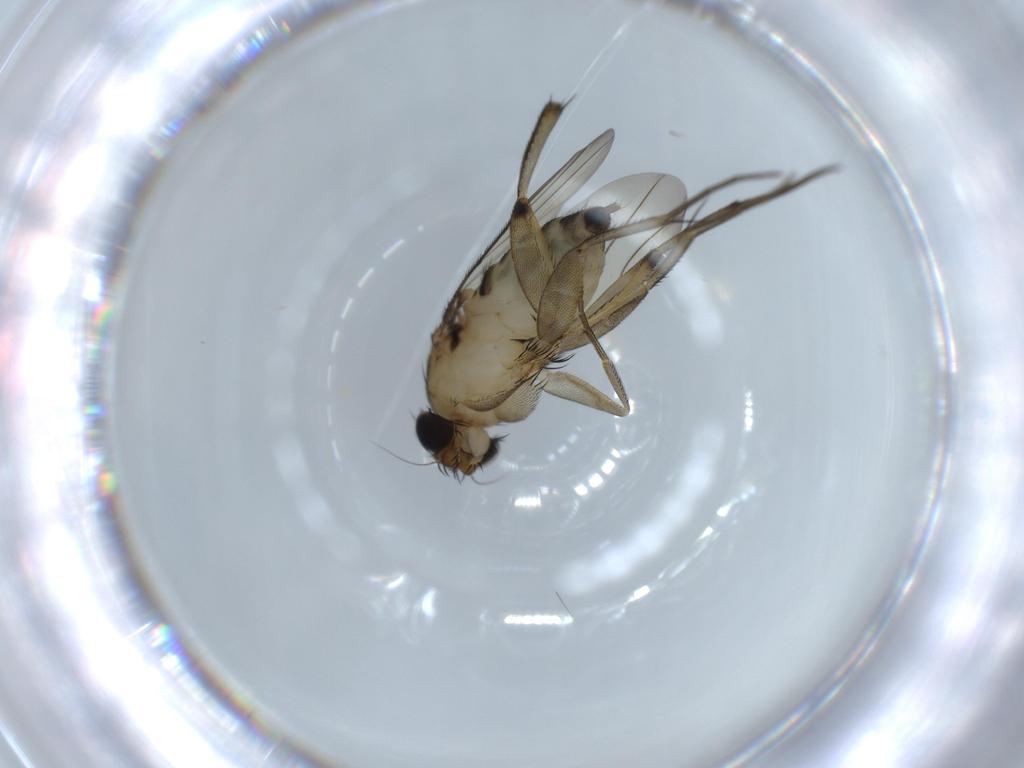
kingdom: Animalia
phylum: Arthropoda
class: Insecta
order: Diptera
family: Phoridae
